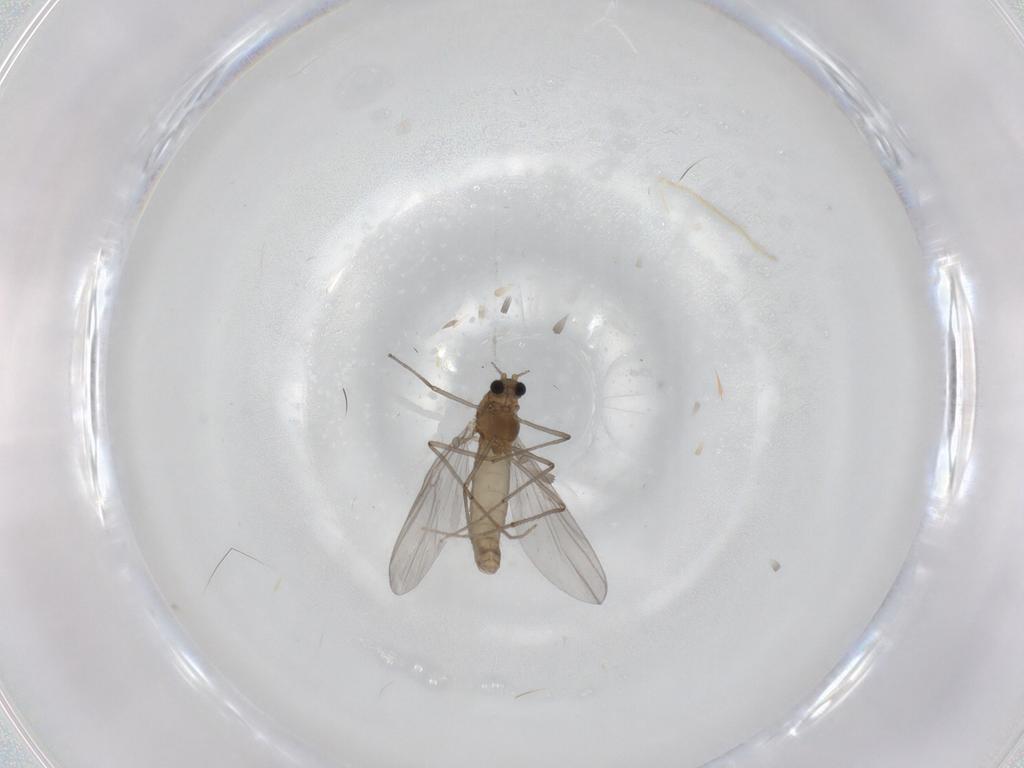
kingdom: Animalia
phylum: Arthropoda
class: Insecta
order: Diptera
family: Chironomidae
